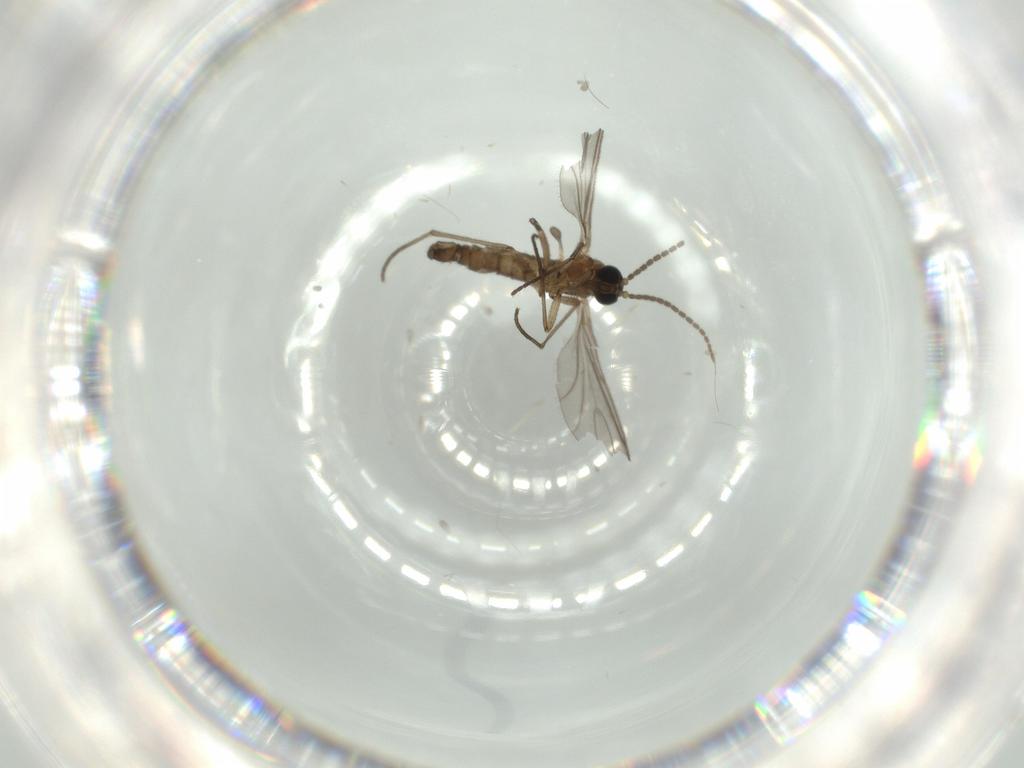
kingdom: Animalia
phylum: Arthropoda
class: Insecta
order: Diptera
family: Sciaridae
